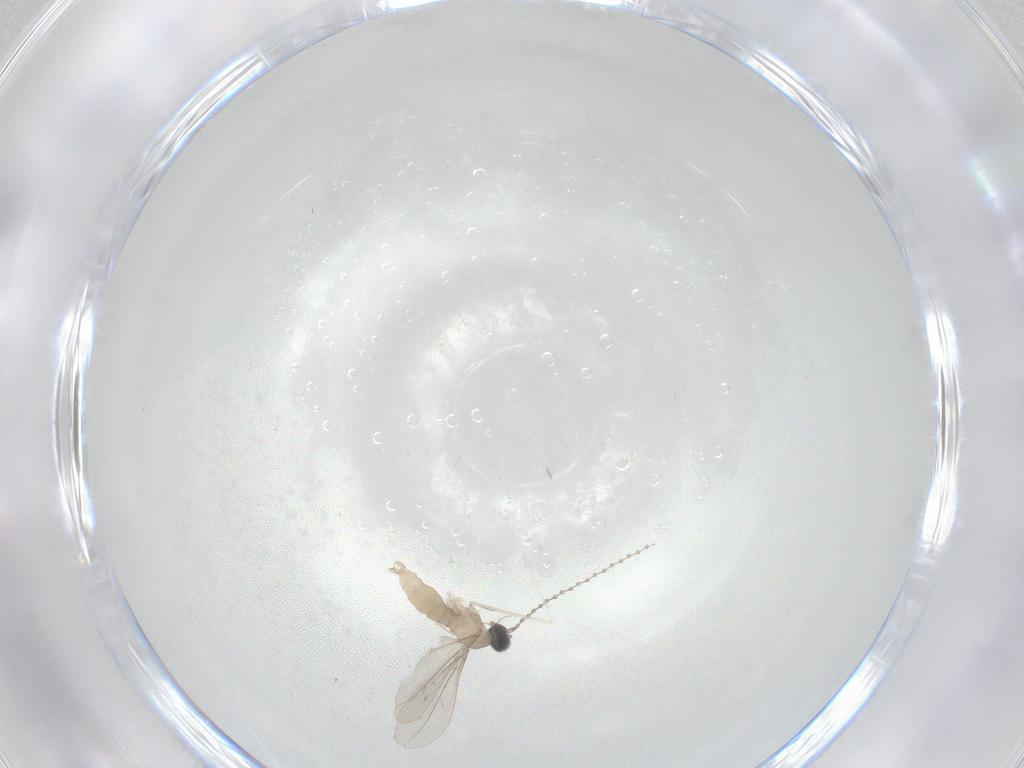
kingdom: Animalia
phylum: Arthropoda
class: Insecta
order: Diptera
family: Cecidomyiidae
